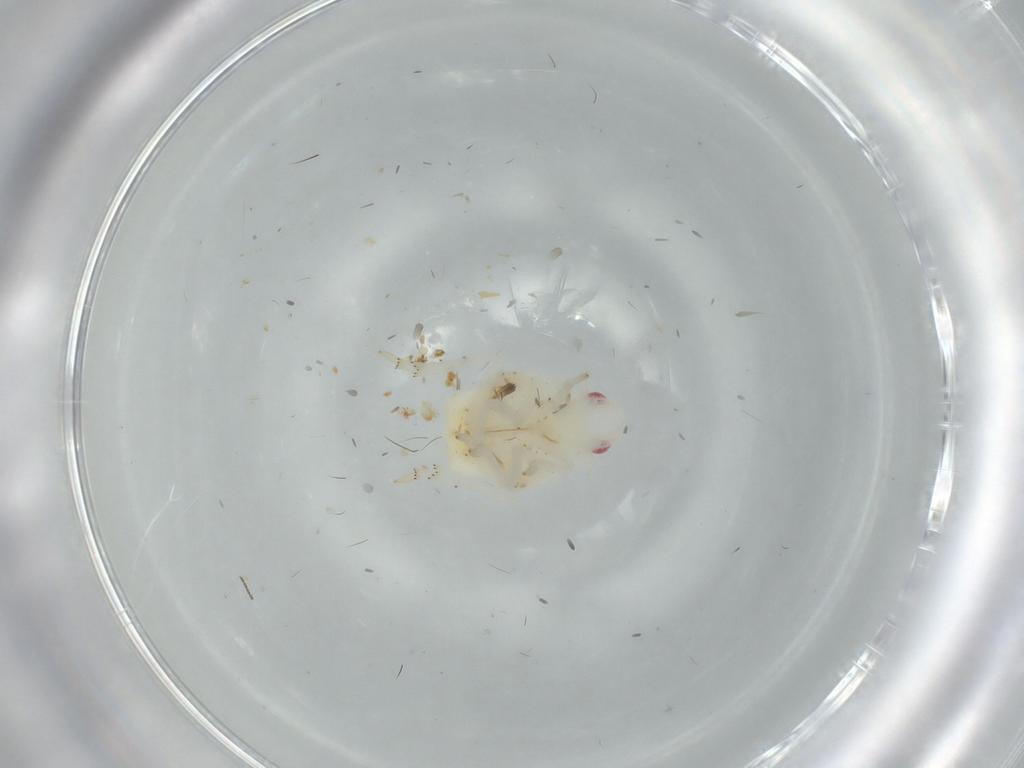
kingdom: Animalia
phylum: Arthropoda
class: Insecta
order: Hemiptera
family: Flatidae
